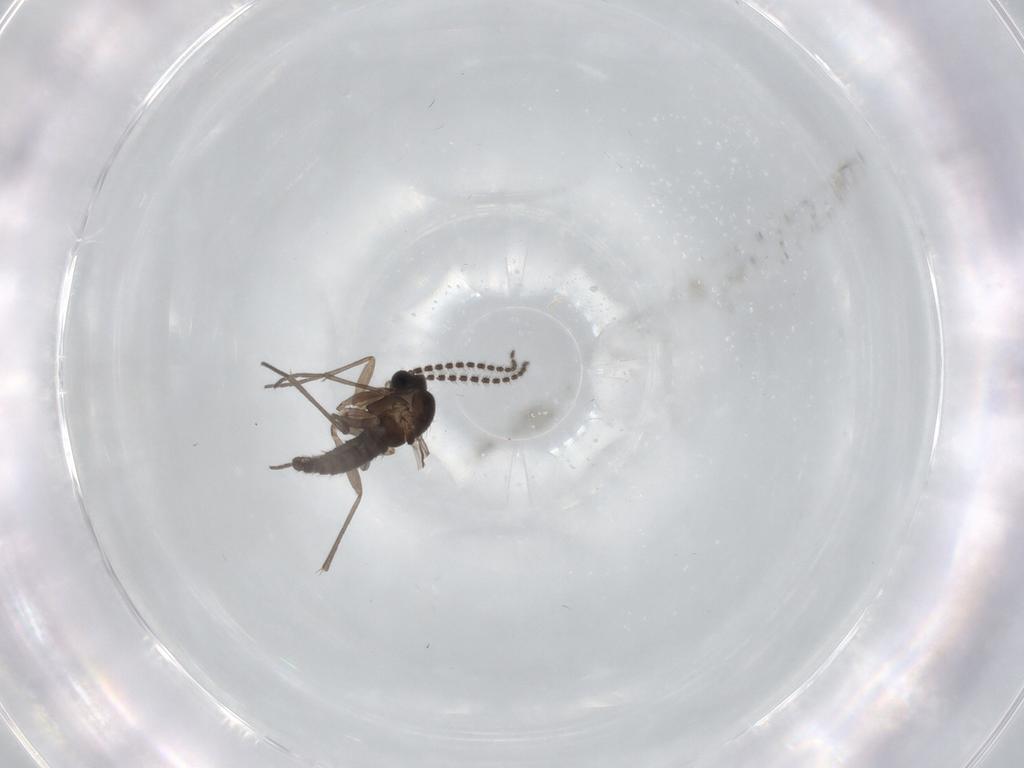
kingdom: Animalia
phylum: Arthropoda
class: Insecta
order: Diptera
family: Sciaridae
